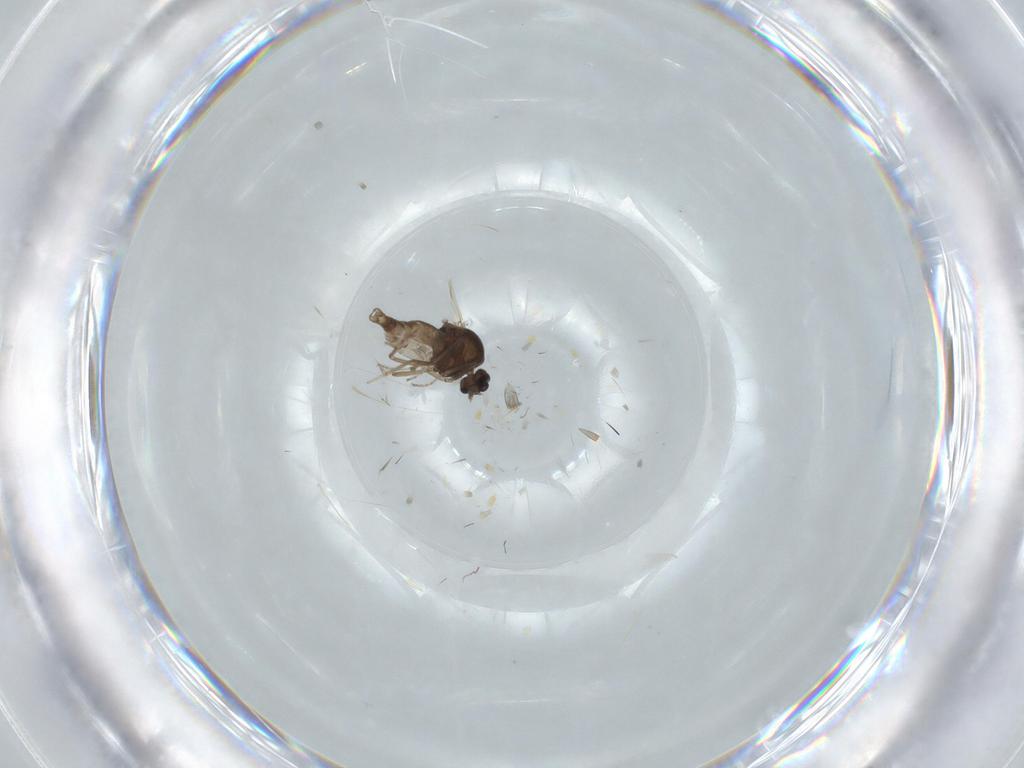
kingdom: Animalia
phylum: Arthropoda
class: Insecta
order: Diptera
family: Ceratopogonidae
